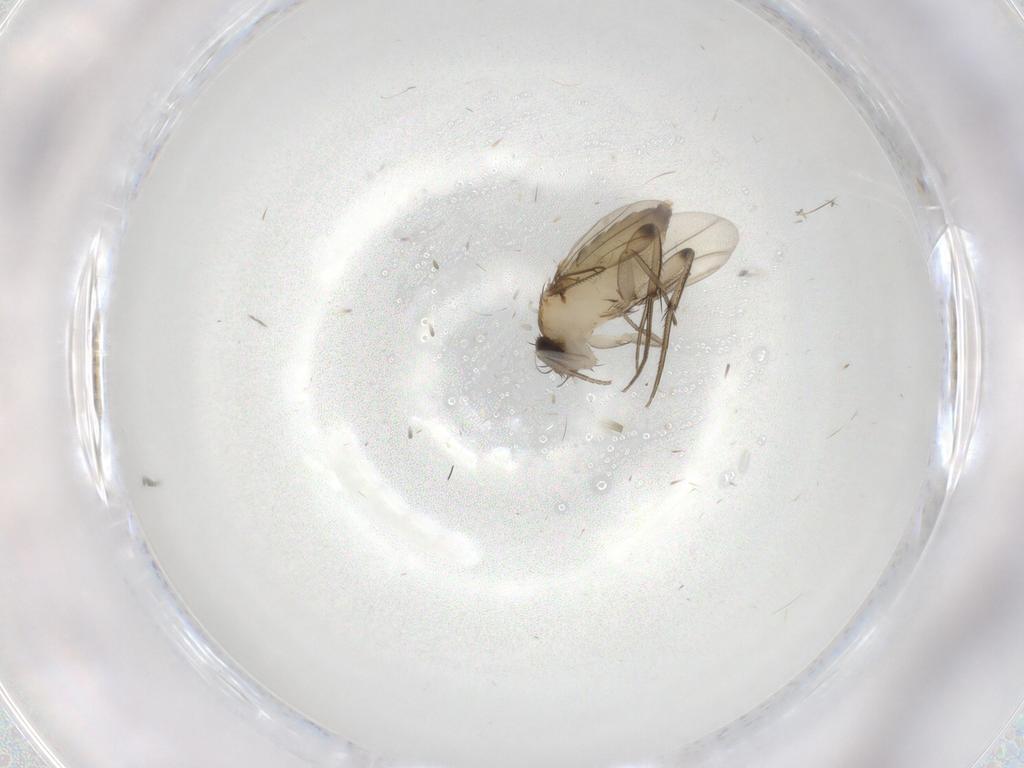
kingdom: Animalia
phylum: Arthropoda
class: Insecta
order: Diptera
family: Phoridae
